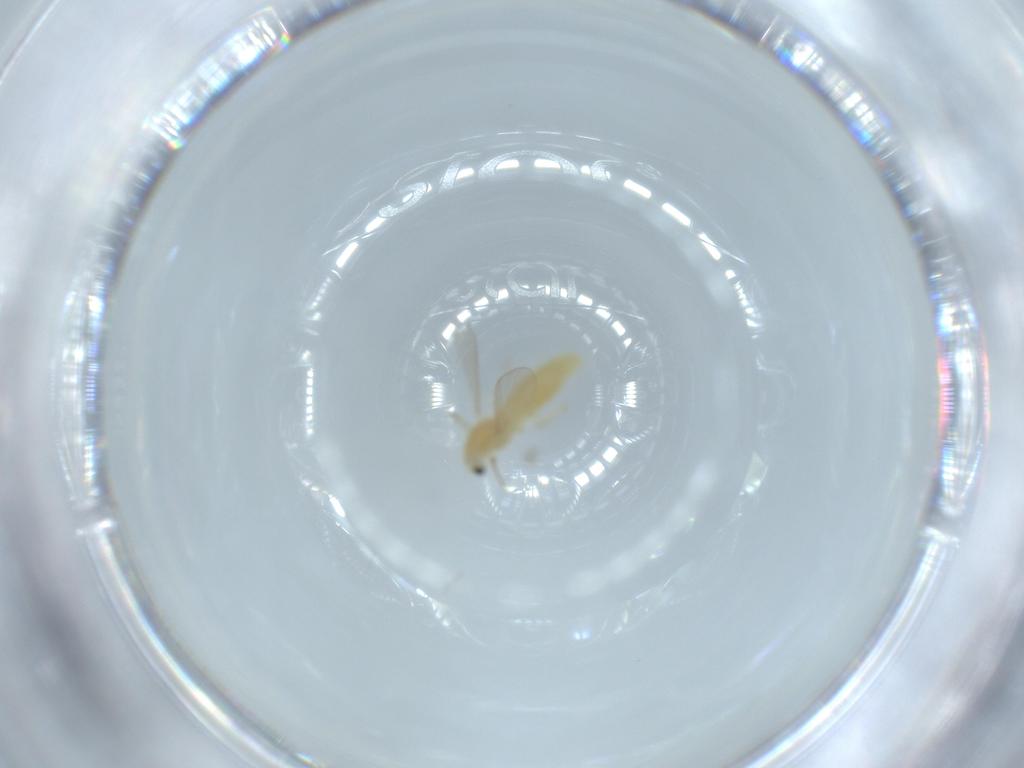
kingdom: Animalia
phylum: Arthropoda
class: Insecta
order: Diptera
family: Chironomidae
